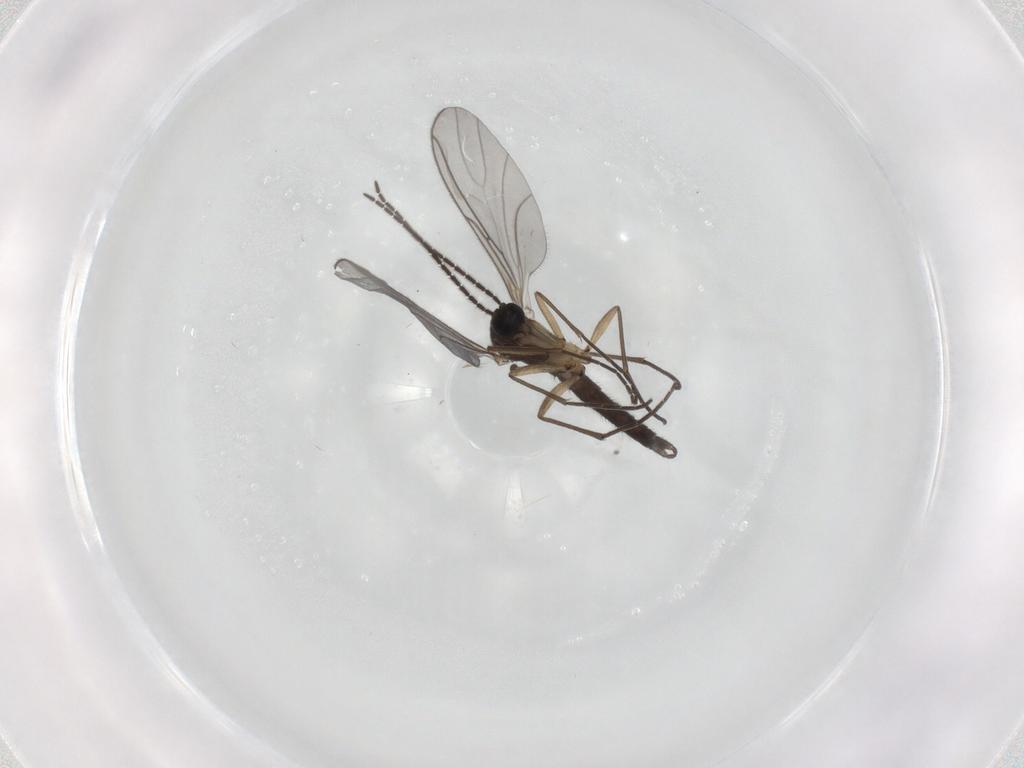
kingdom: Animalia
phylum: Arthropoda
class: Insecta
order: Diptera
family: Sciaridae
